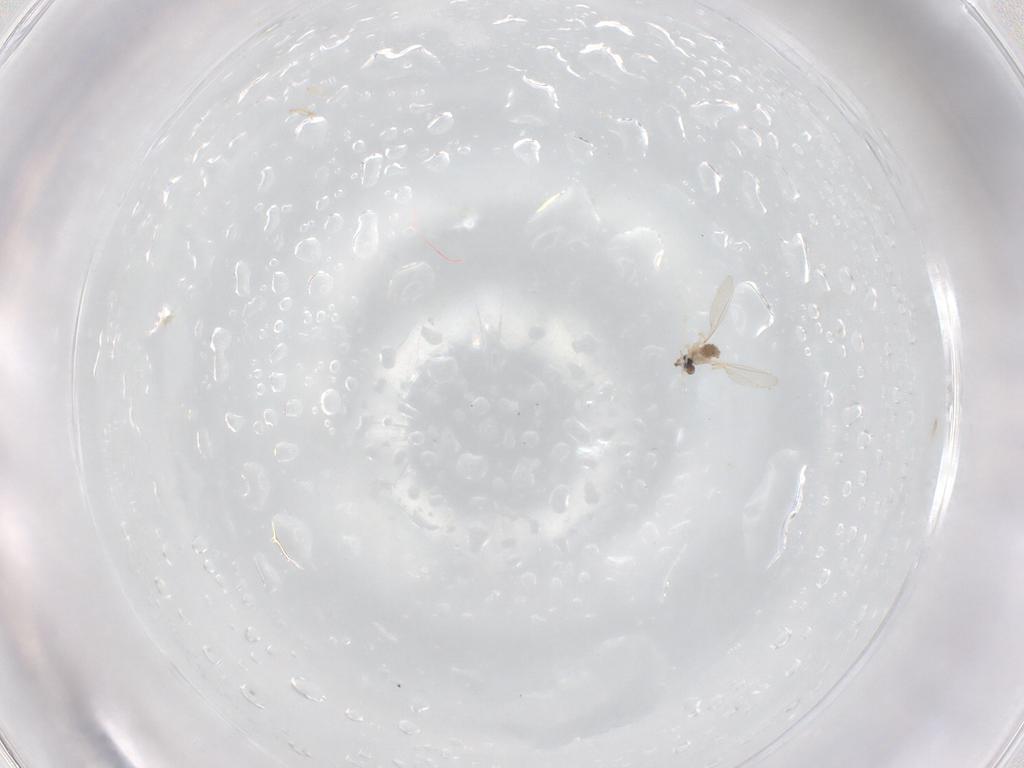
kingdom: Animalia
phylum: Arthropoda
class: Insecta
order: Diptera
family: Cecidomyiidae
